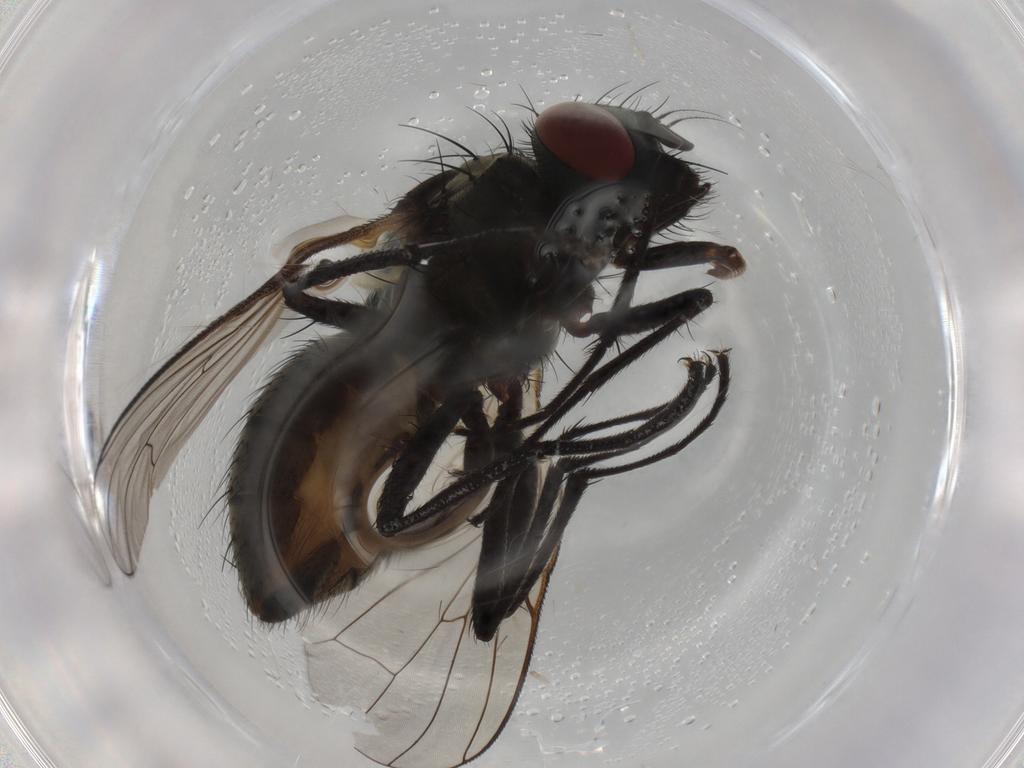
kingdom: Animalia
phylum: Arthropoda
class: Insecta
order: Diptera
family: Muscidae
